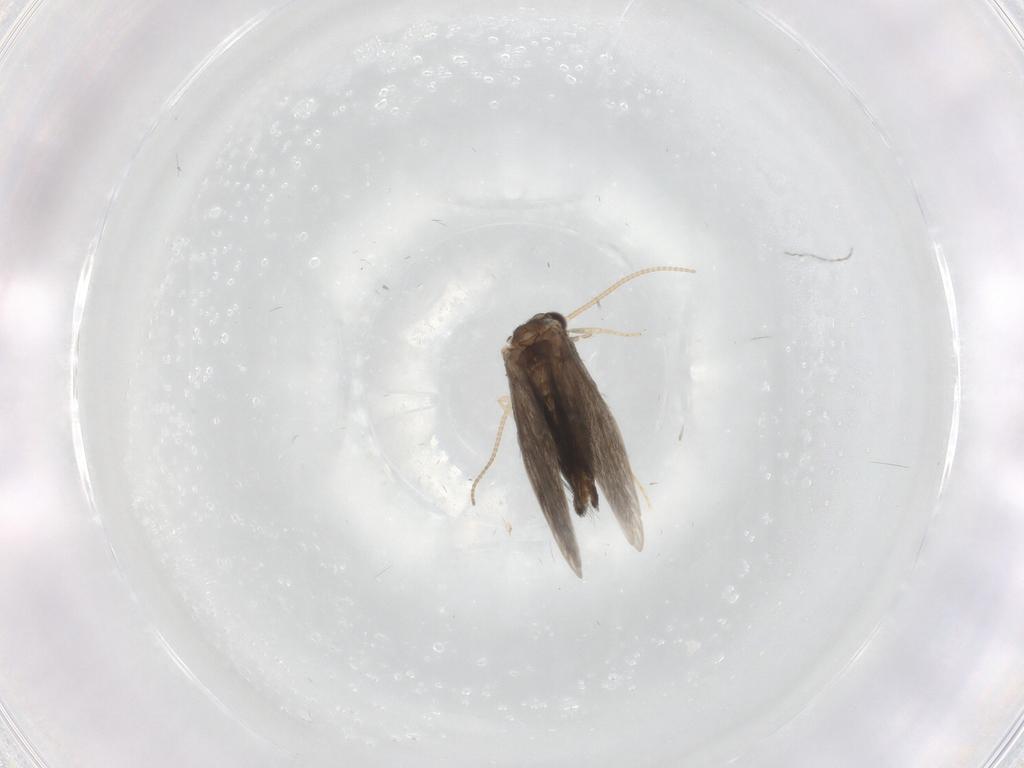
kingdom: Animalia
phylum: Arthropoda
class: Insecta
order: Trichoptera
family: Hydroptilidae
